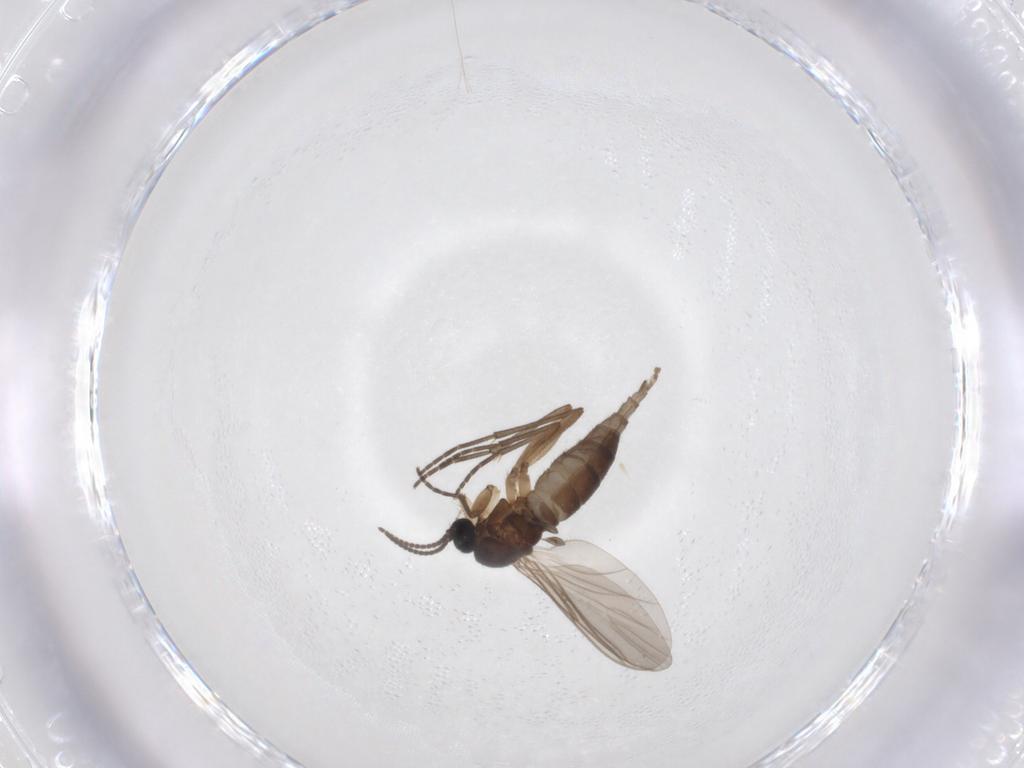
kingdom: Animalia
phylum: Arthropoda
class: Insecta
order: Diptera
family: Sciaridae
